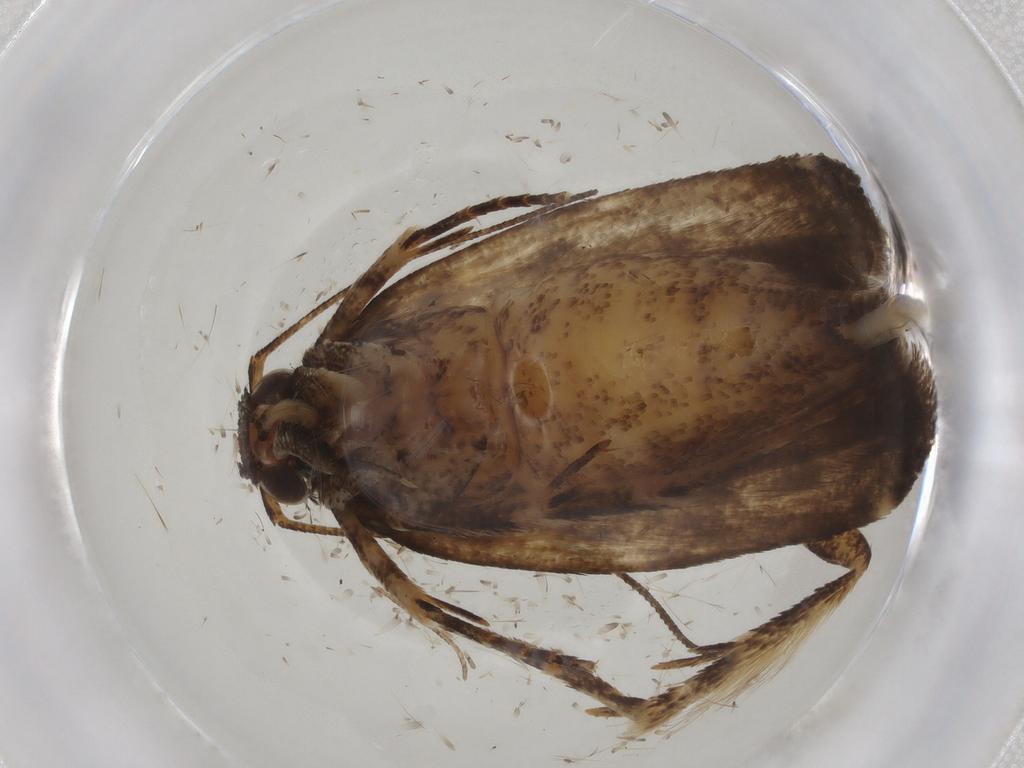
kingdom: Animalia
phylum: Arthropoda
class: Insecta
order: Lepidoptera
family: Gelechiidae
